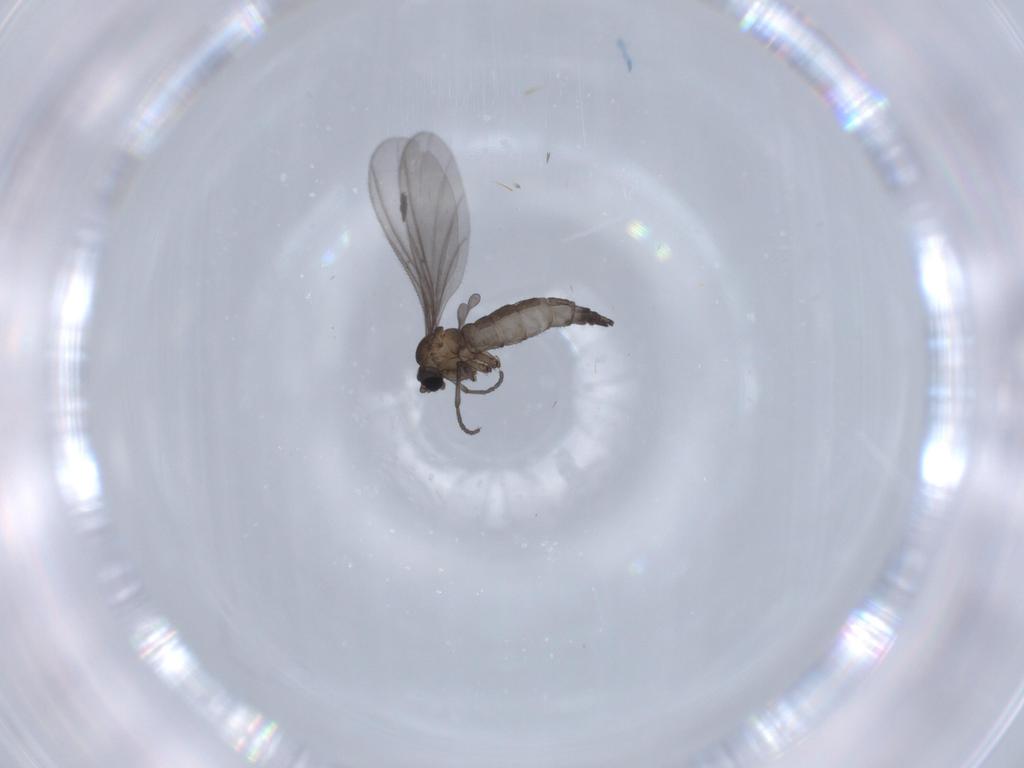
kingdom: Animalia
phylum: Arthropoda
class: Insecta
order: Diptera
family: Sciaridae
